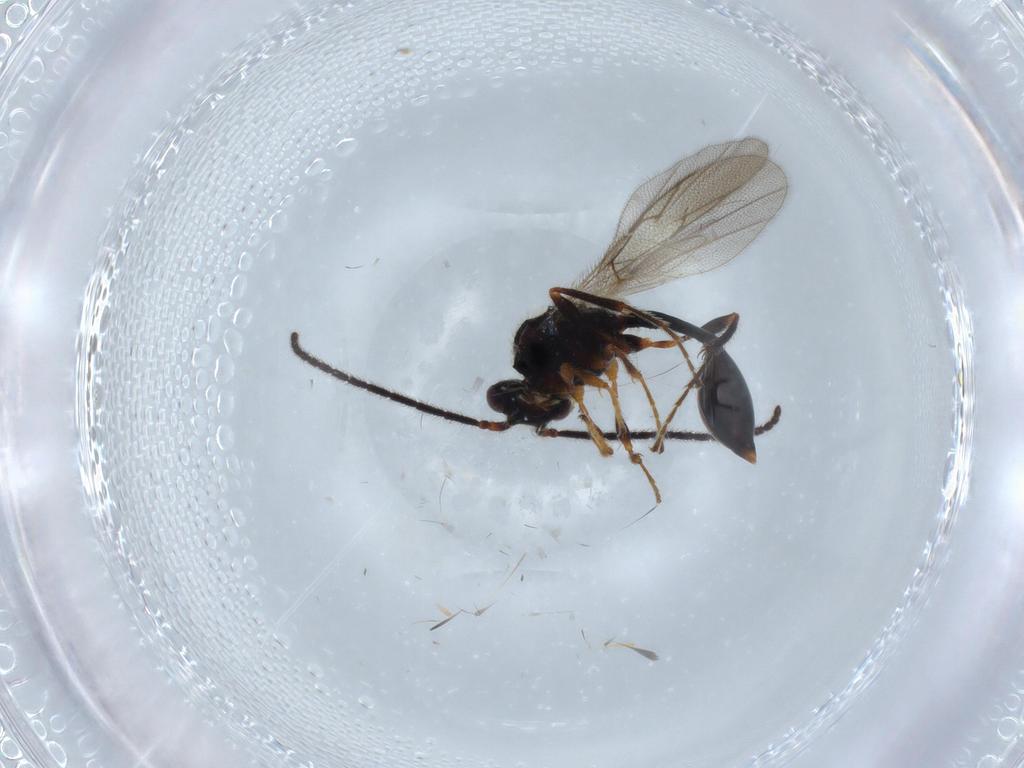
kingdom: Animalia
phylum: Arthropoda
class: Insecta
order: Hymenoptera
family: Diapriidae
